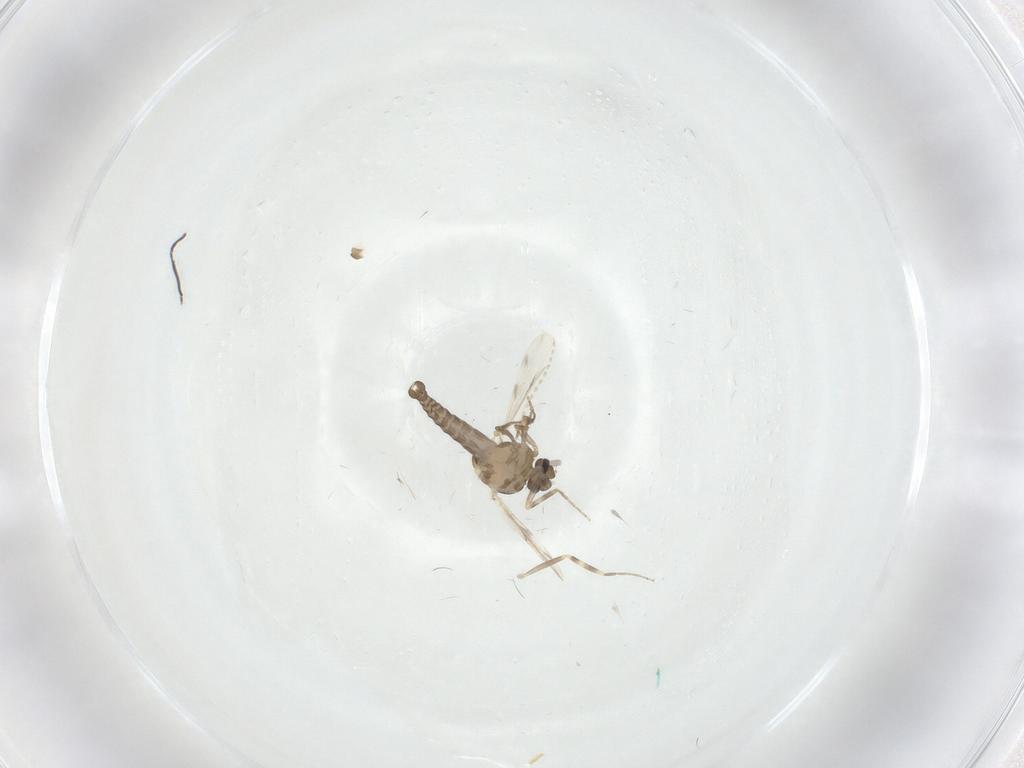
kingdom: Animalia
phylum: Arthropoda
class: Insecta
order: Diptera
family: Ceratopogonidae
